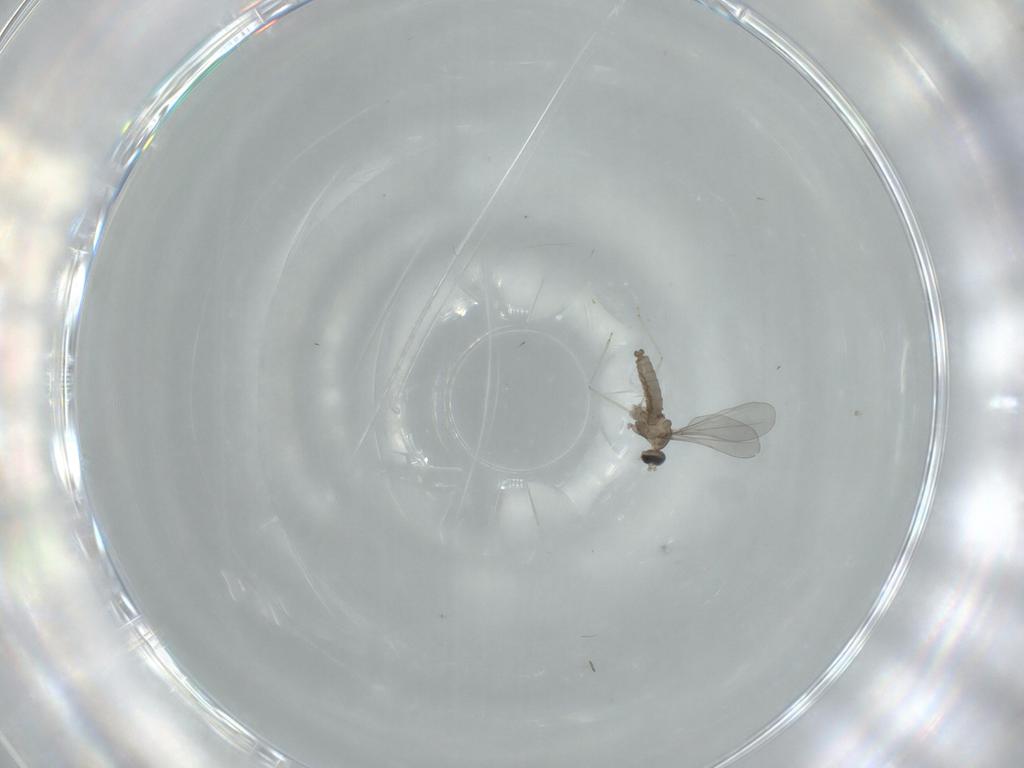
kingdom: Animalia
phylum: Arthropoda
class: Insecta
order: Diptera
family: Cecidomyiidae
